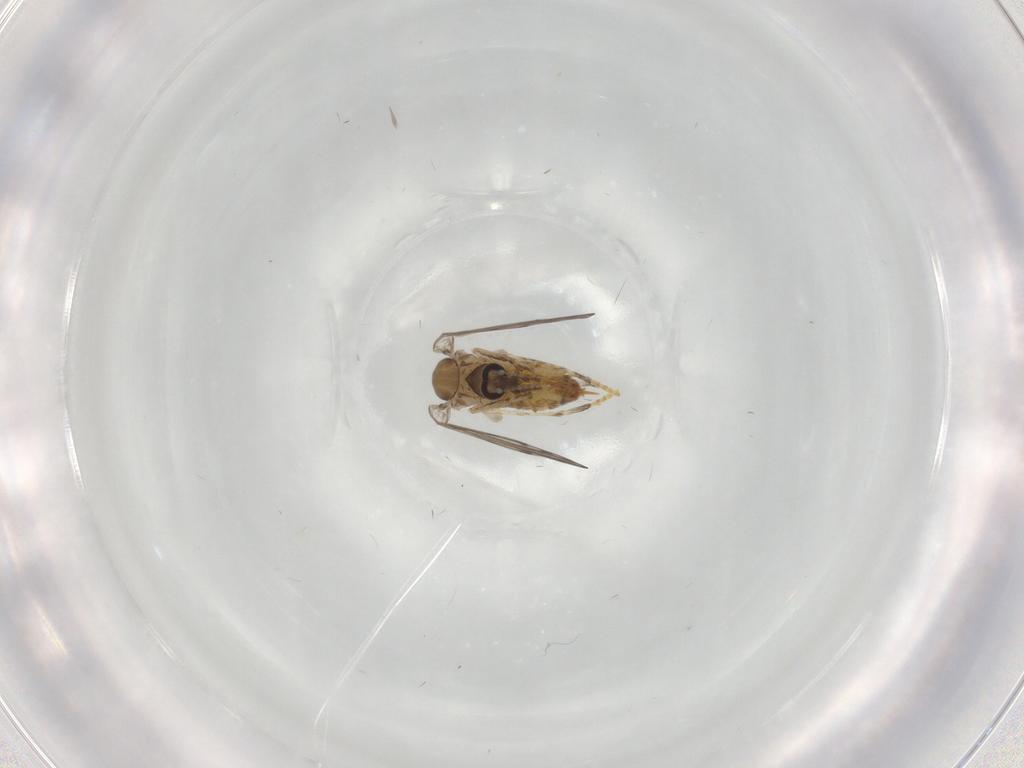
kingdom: Animalia
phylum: Arthropoda
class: Insecta
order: Diptera
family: Psychodidae
